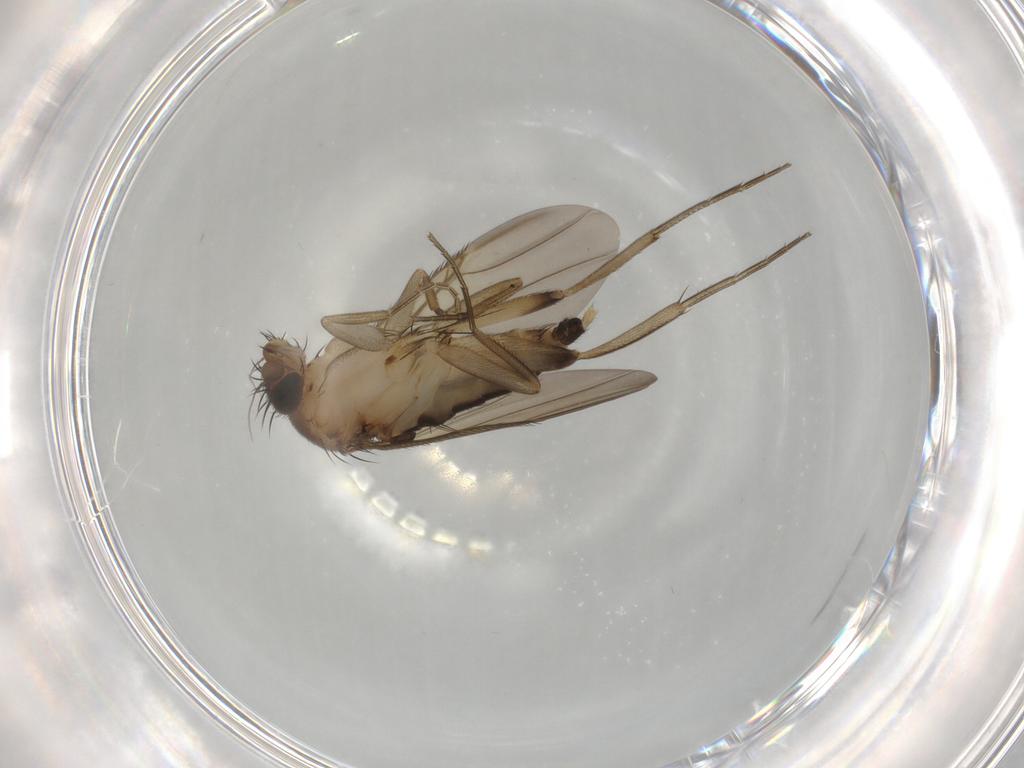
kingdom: Animalia
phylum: Arthropoda
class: Insecta
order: Diptera
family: Phoridae
